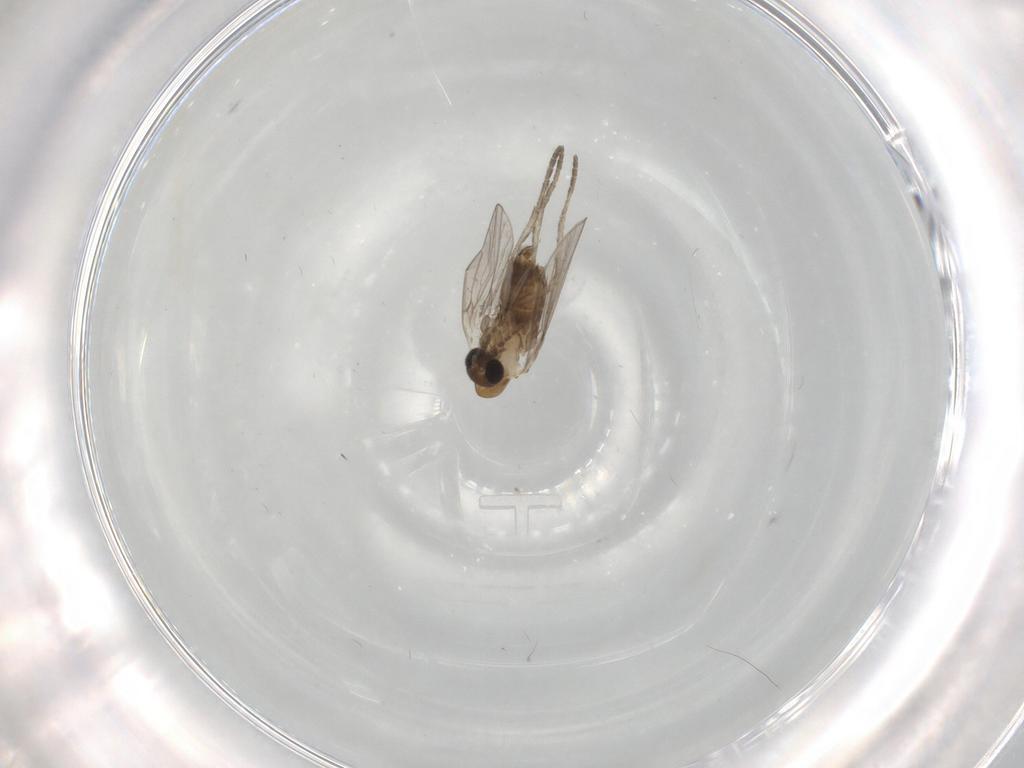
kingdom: Animalia
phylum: Arthropoda
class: Insecta
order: Diptera
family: Psychodidae
